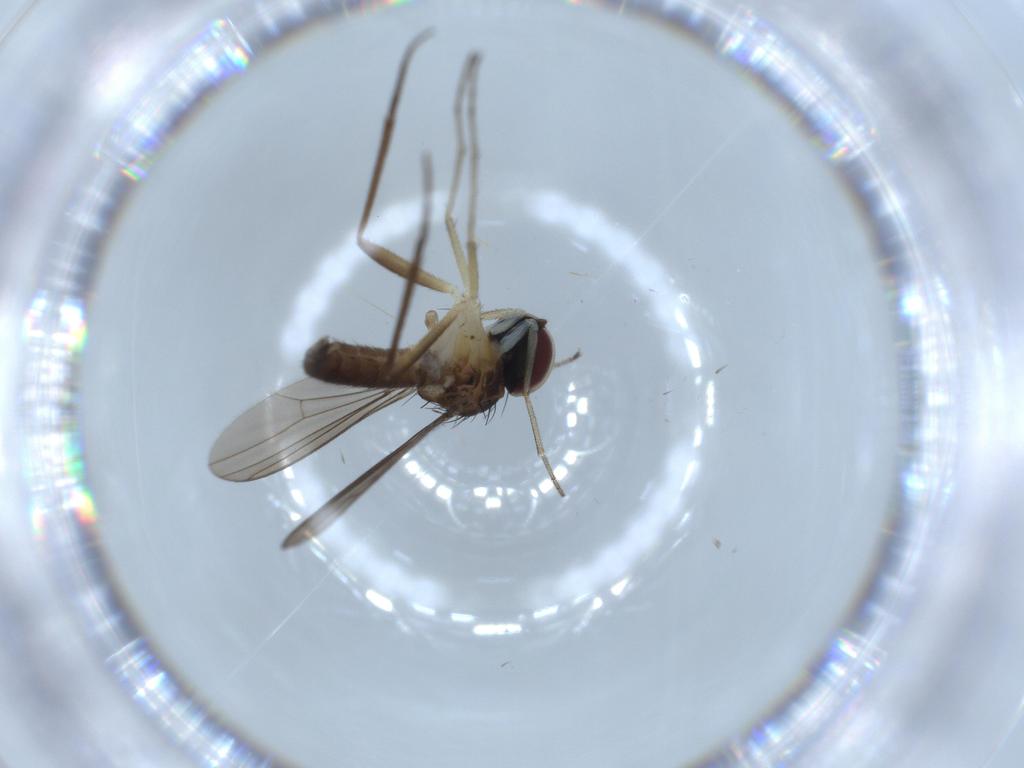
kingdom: Animalia
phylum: Arthropoda
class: Insecta
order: Diptera
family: Dolichopodidae
